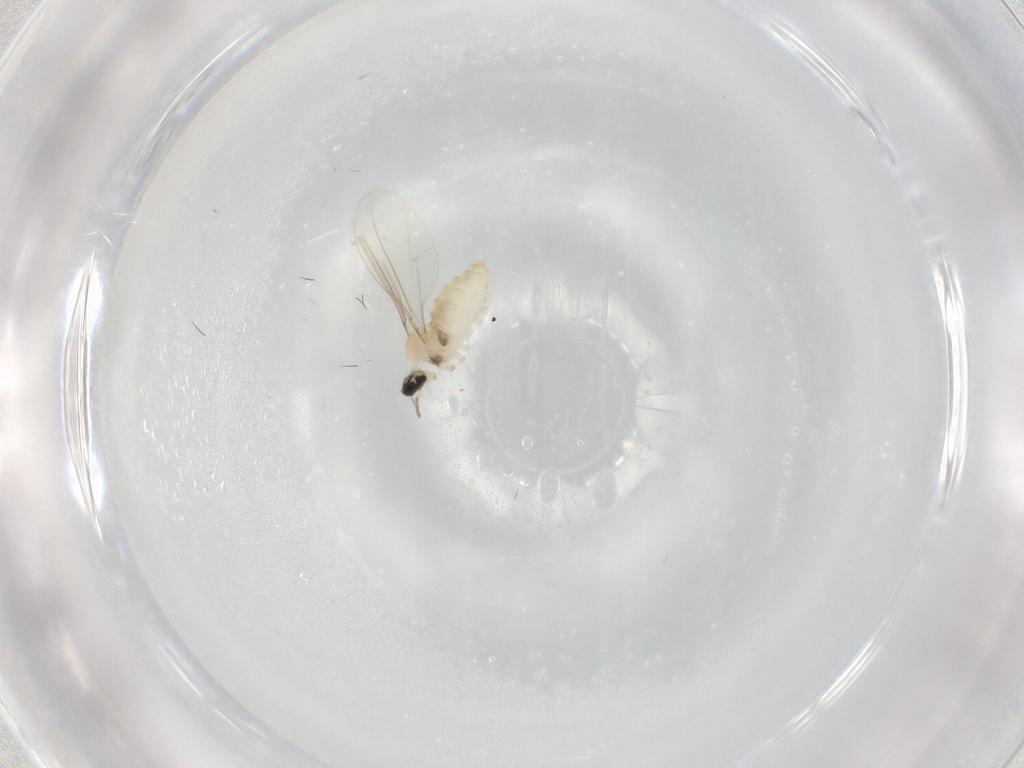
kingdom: Animalia
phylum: Arthropoda
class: Insecta
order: Diptera
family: Cecidomyiidae
